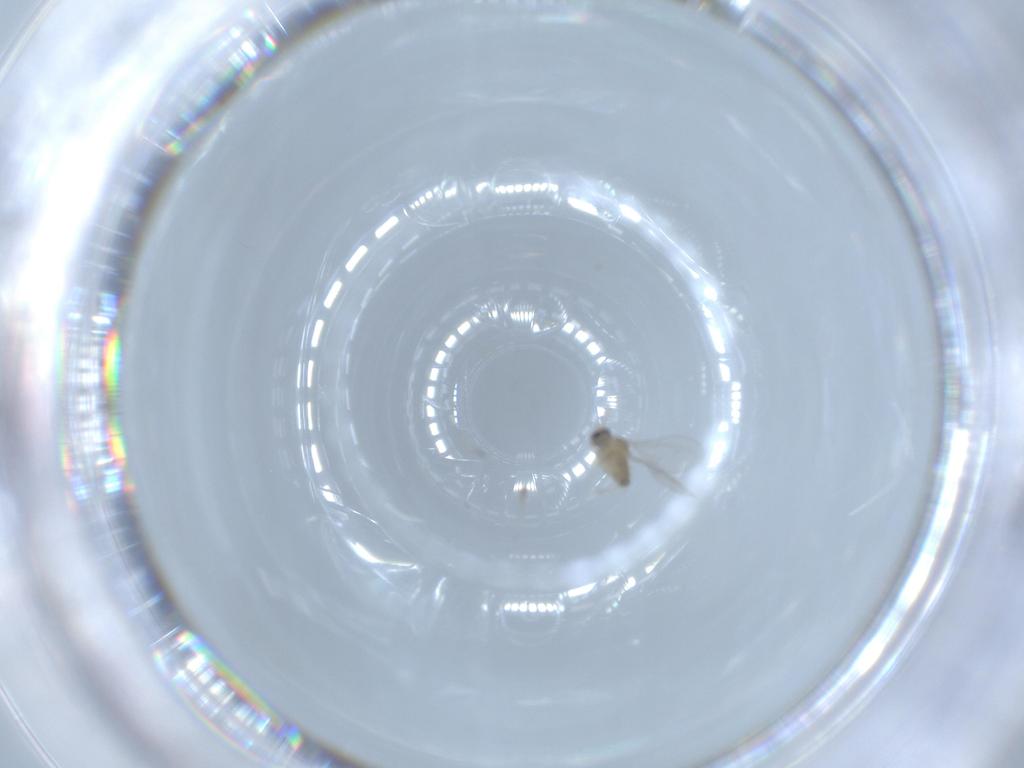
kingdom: Animalia
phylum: Arthropoda
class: Insecta
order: Diptera
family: Cecidomyiidae
